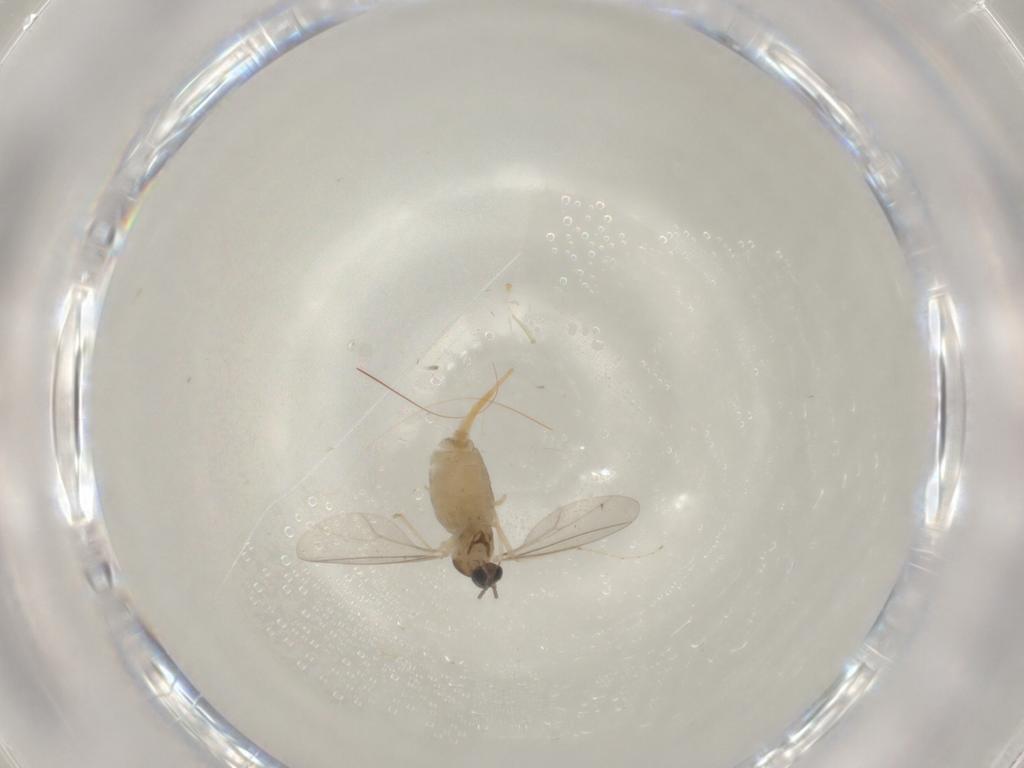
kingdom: Animalia
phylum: Arthropoda
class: Insecta
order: Diptera
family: Cecidomyiidae
